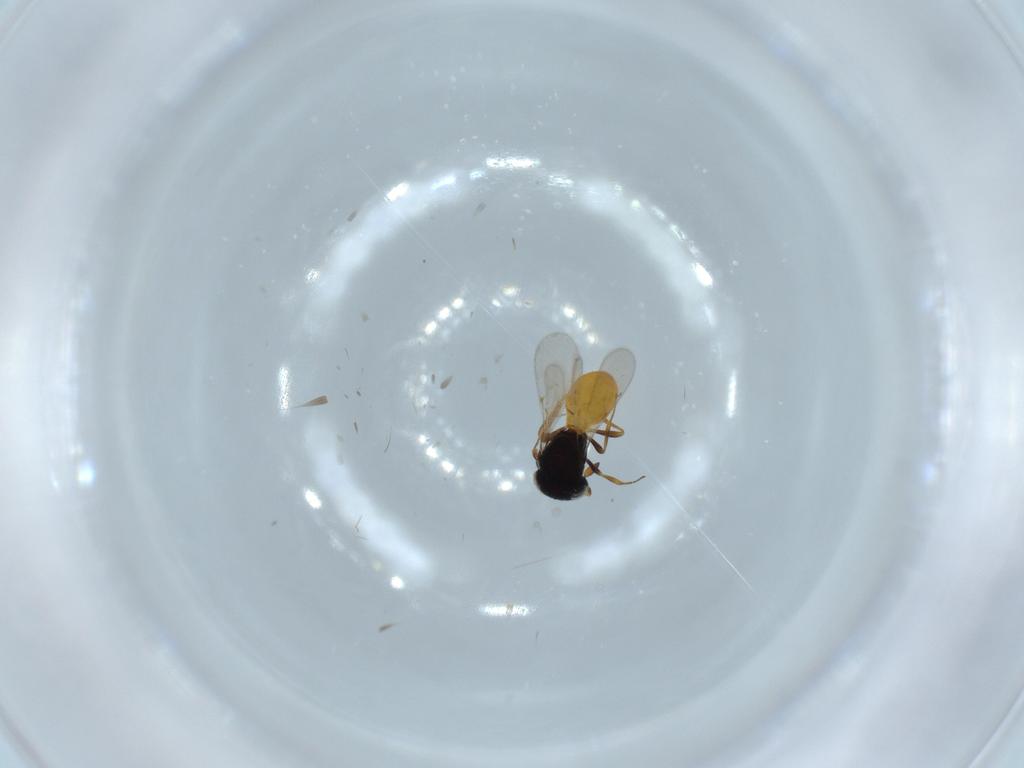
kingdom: Animalia
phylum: Arthropoda
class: Insecta
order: Hymenoptera
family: Scelionidae
